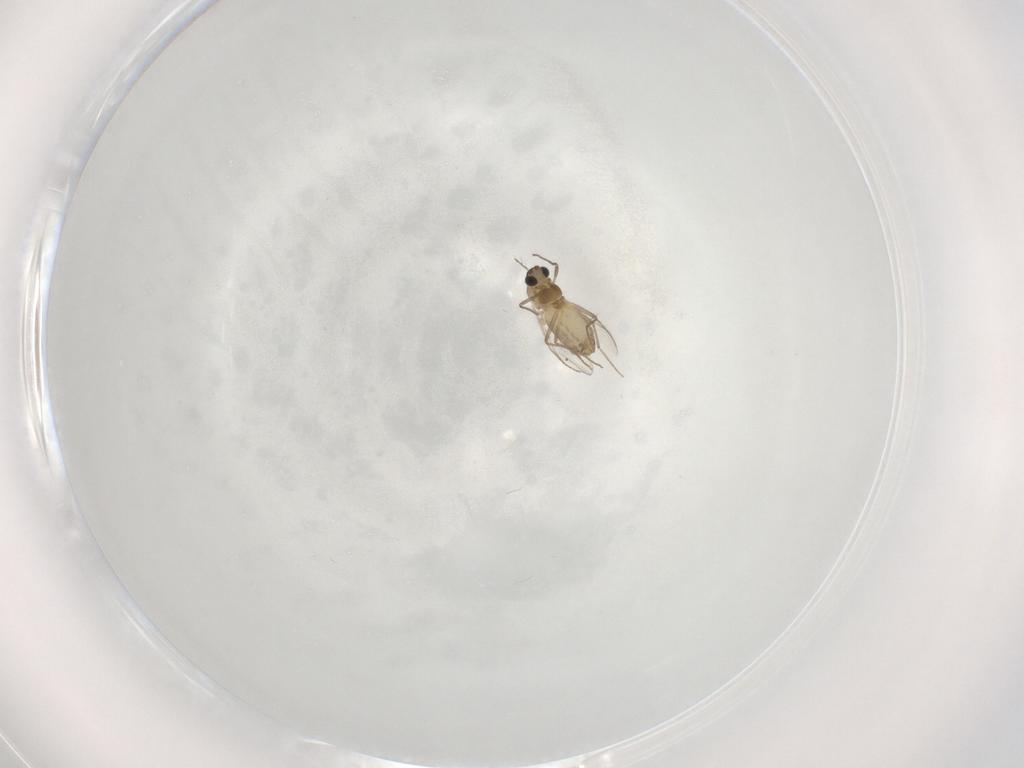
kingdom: Animalia
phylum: Arthropoda
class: Insecta
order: Diptera
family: Chironomidae
